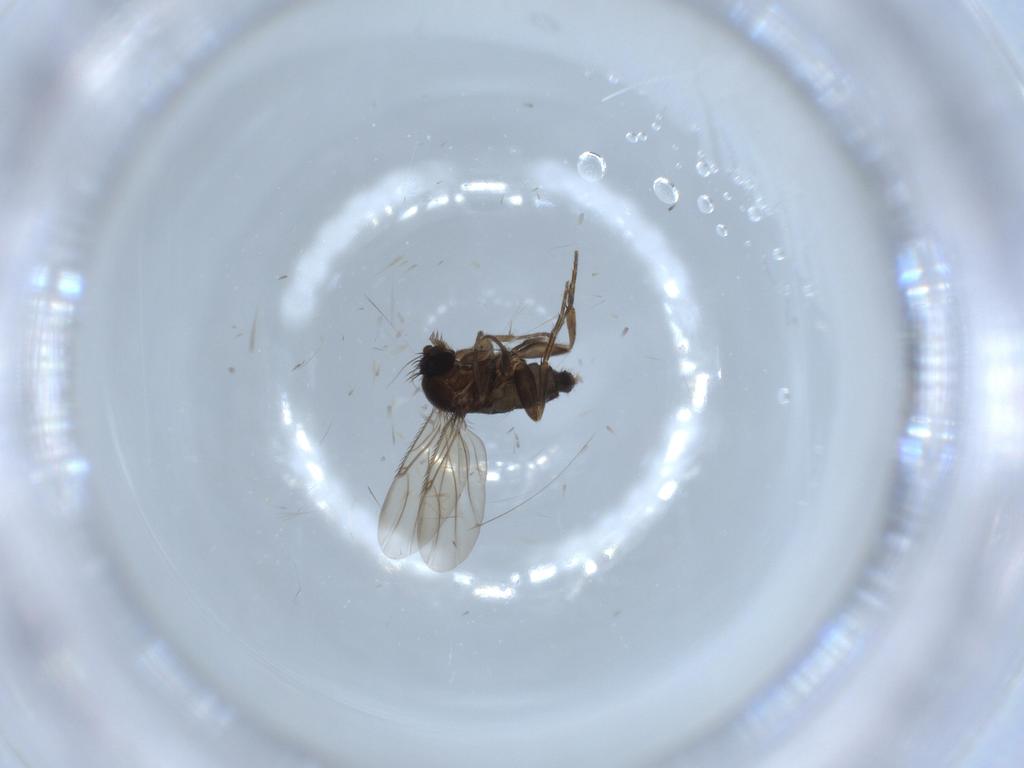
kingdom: Animalia
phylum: Arthropoda
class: Insecta
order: Diptera
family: Phoridae
